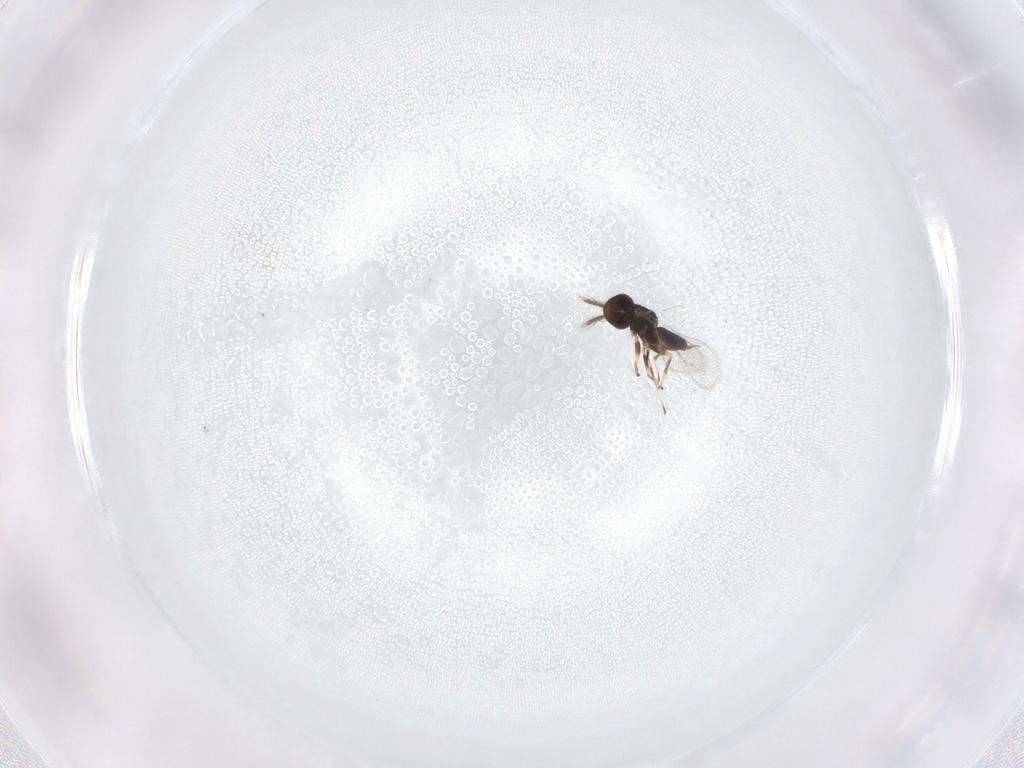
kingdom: Animalia
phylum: Arthropoda
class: Insecta
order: Hymenoptera
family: Eulophidae
